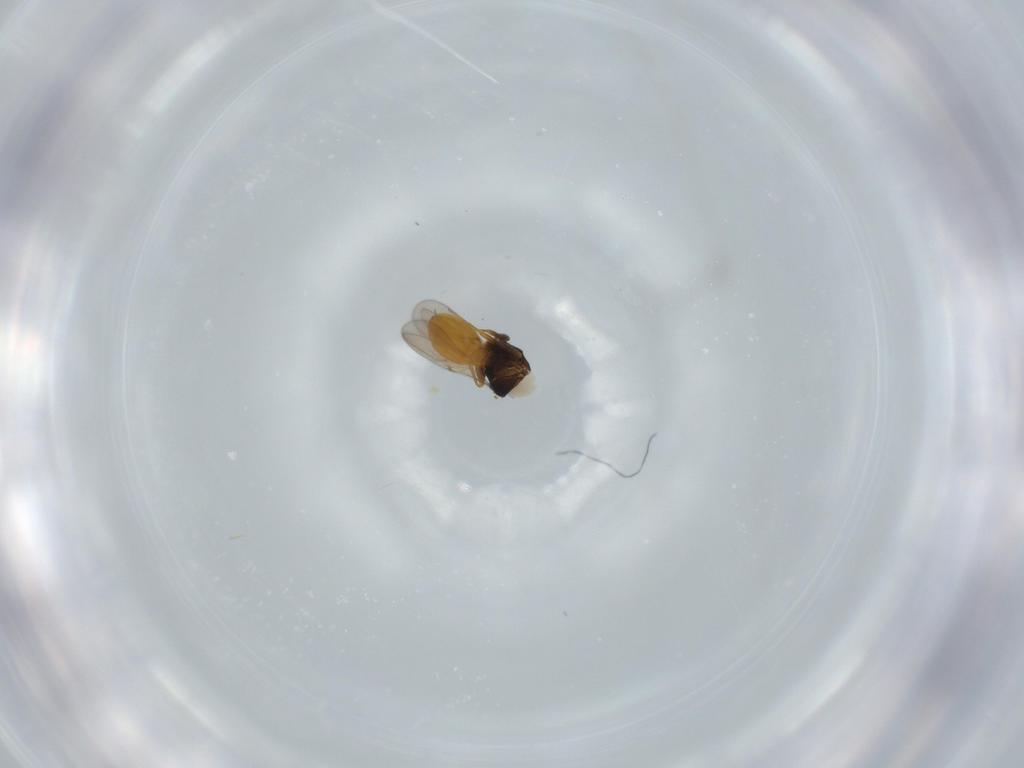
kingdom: Animalia
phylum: Arthropoda
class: Insecta
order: Hymenoptera
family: Scelionidae
